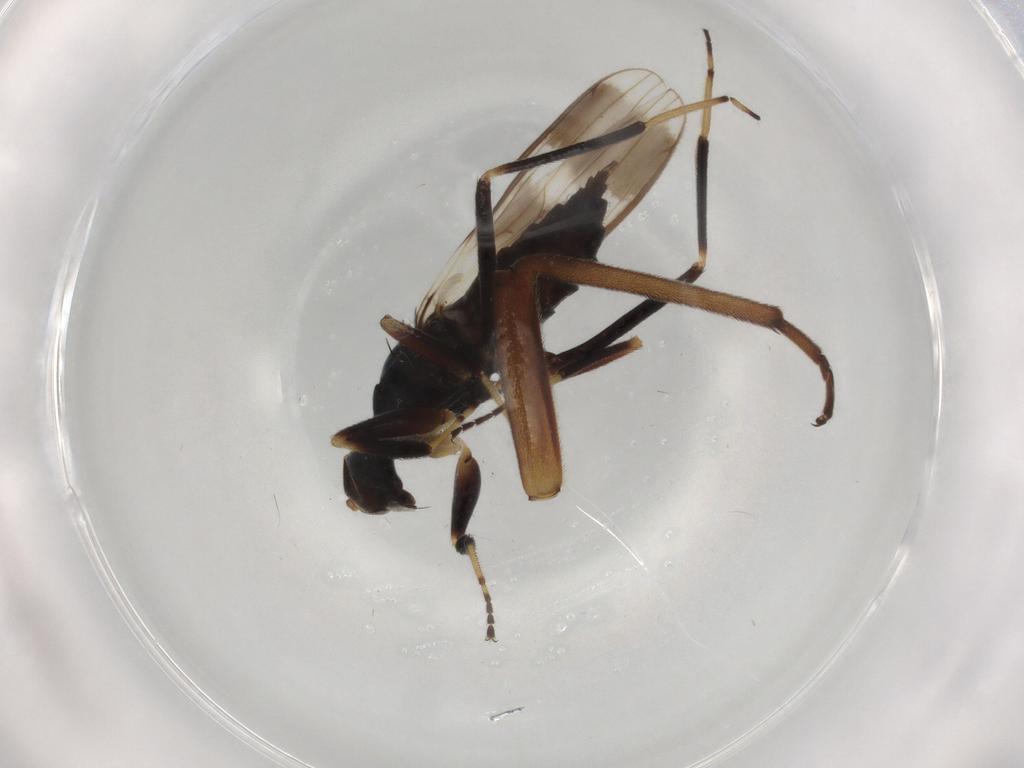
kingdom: Animalia
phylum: Arthropoda
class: Insecta
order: Diptera
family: Hybotidae
